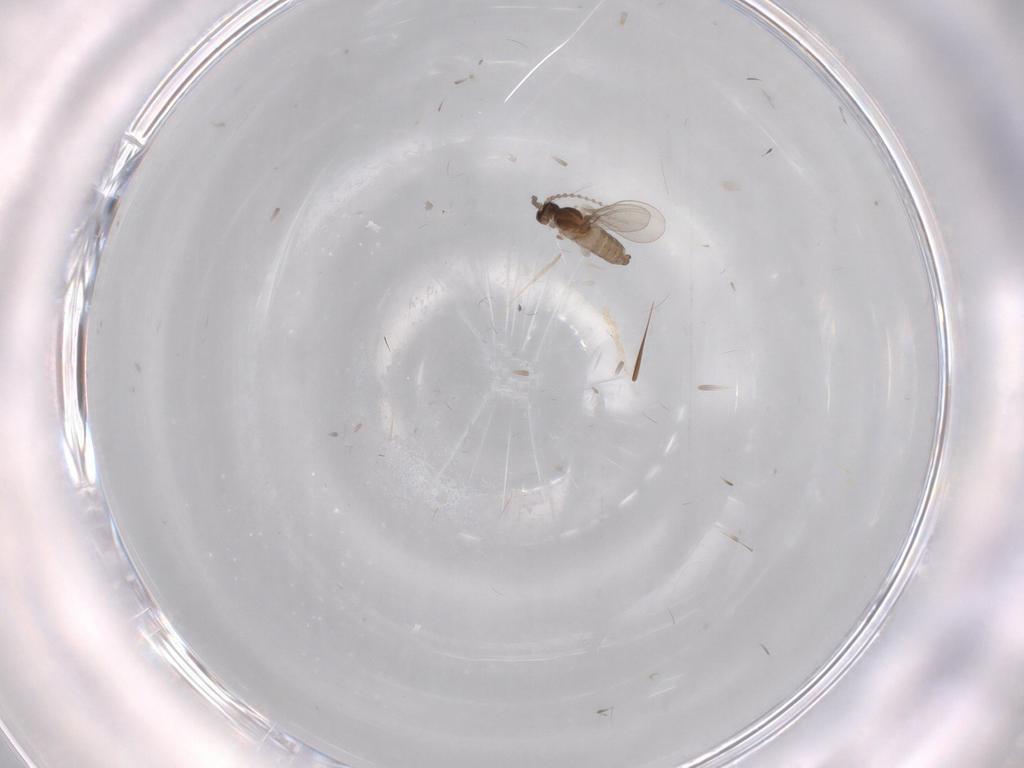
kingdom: Animalia
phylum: Arthropoda
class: Insecta
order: Diptera
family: Cecidomyiidae
